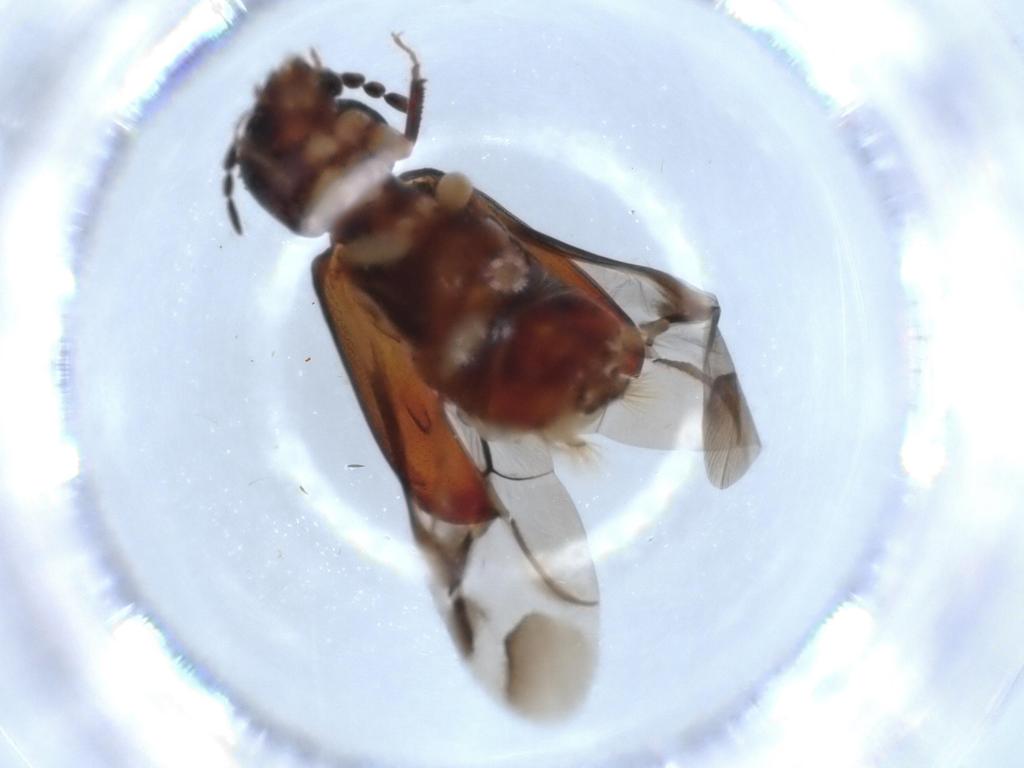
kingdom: Animalia
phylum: Arthropoda
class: Insecta
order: Coleoptera
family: Bostrichidae
